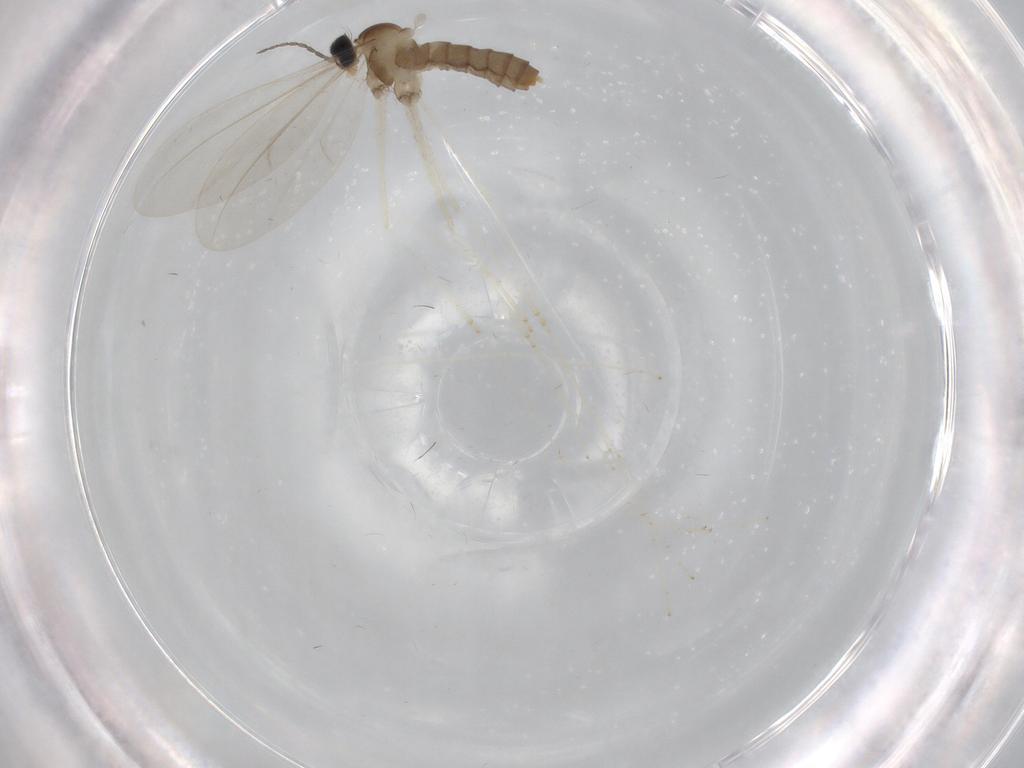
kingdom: Animalia
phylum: Arthropoda
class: Insecta
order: Diptera
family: Cecidomyiidae
